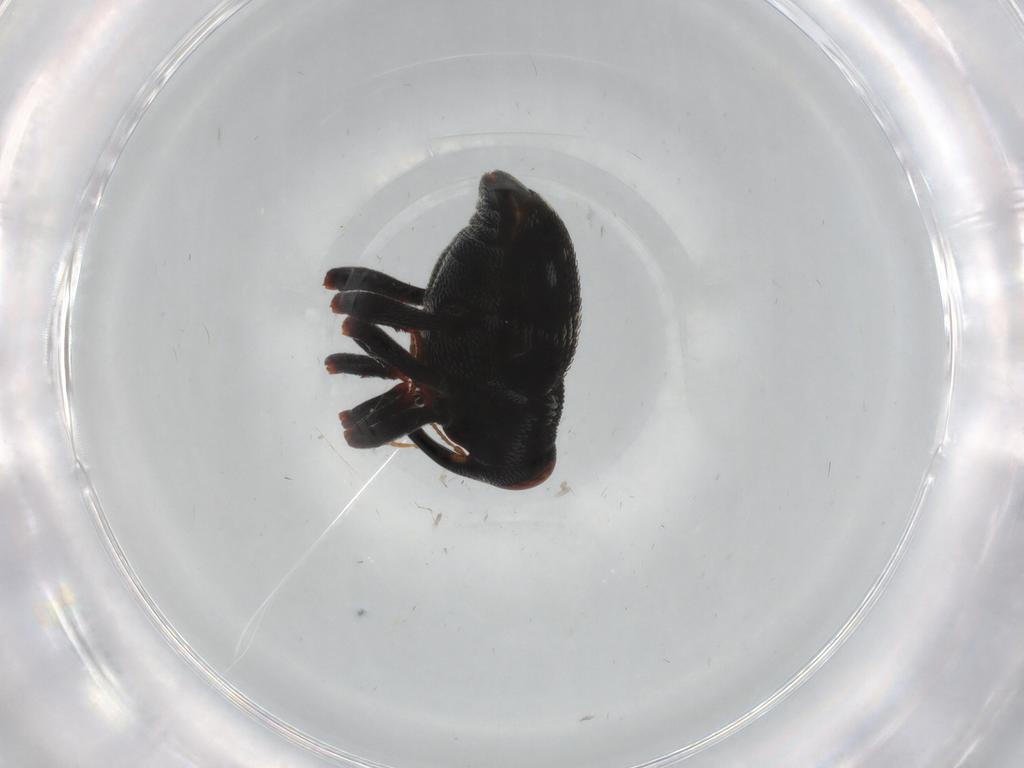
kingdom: Animalia
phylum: Arthropoda
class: Insecta
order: Coleoptera
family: Curculionidae
